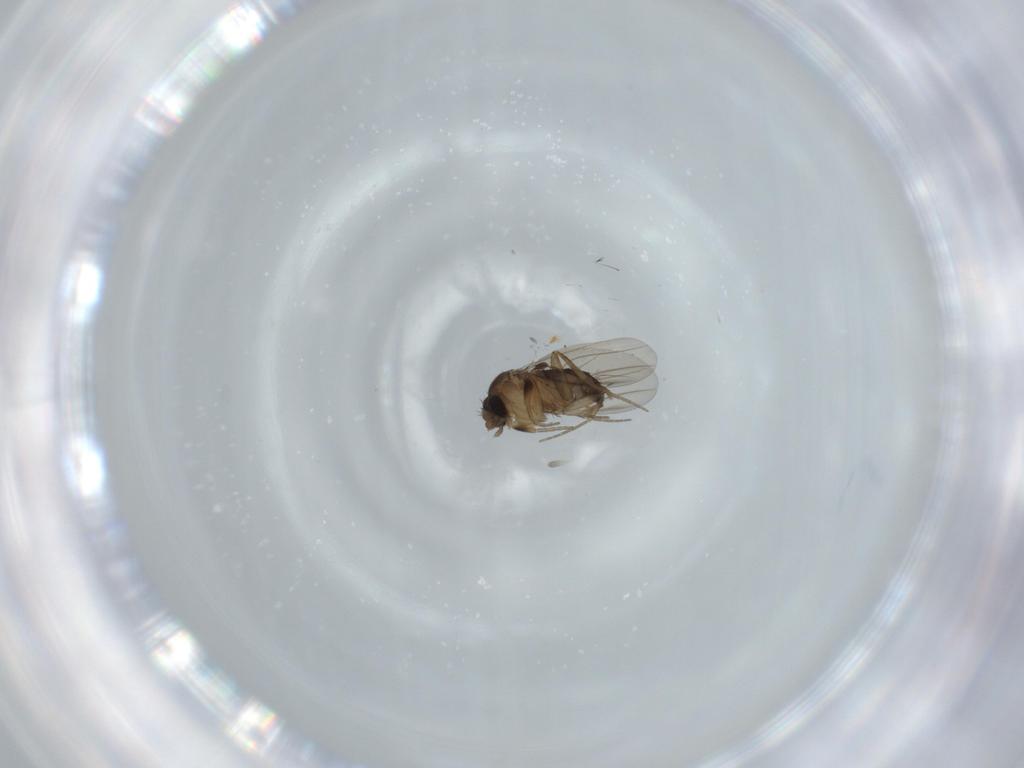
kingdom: Animalia
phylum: Arthropoda
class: Insecta
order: Diptera
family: Phoridae
